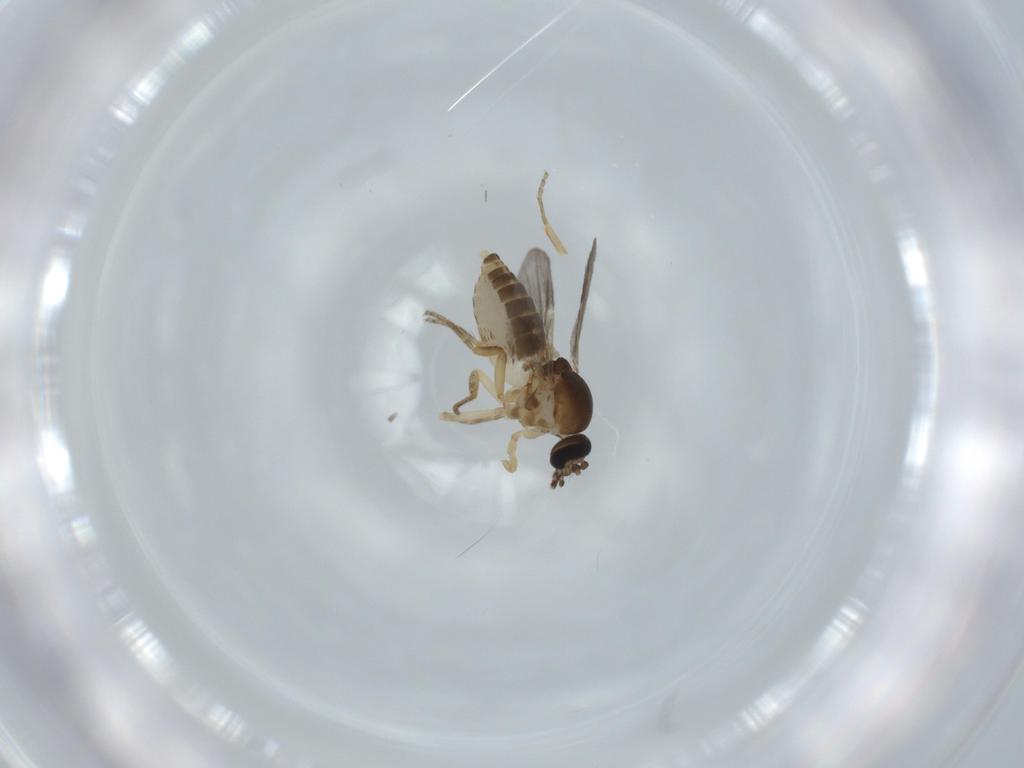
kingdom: Animalia
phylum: Arthropoda
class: Insecta
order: Diptera
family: Ceratopogonidae
